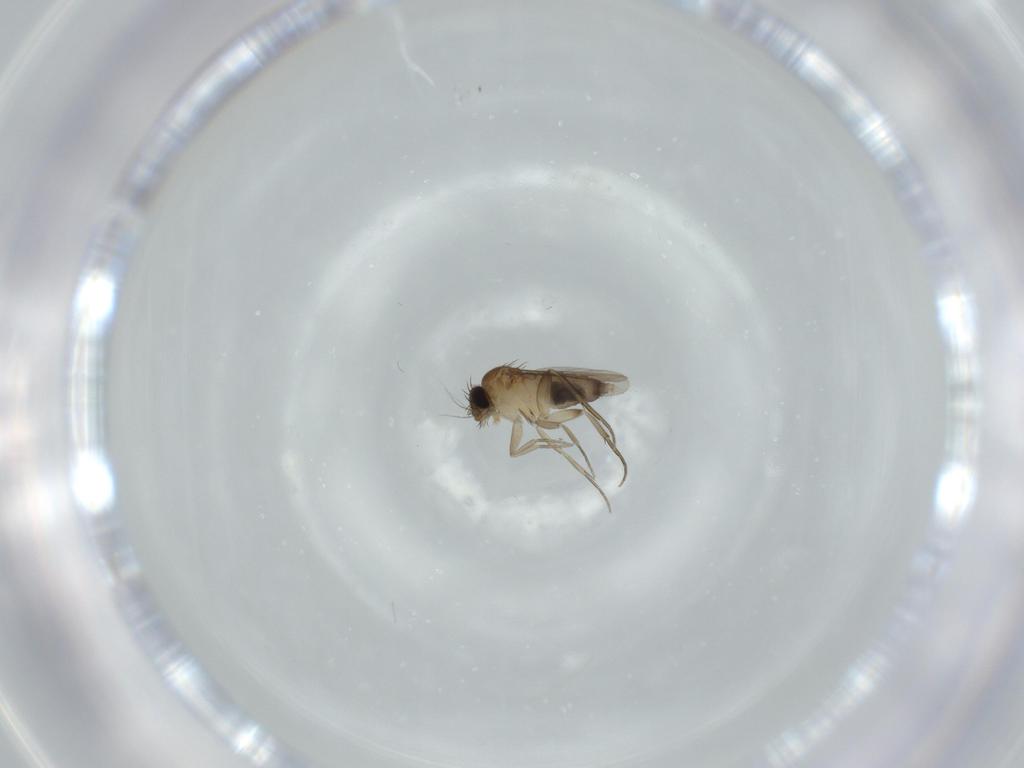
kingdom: Animalia
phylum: Arthropoda
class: Insecta
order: Diptera
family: Phoridae
